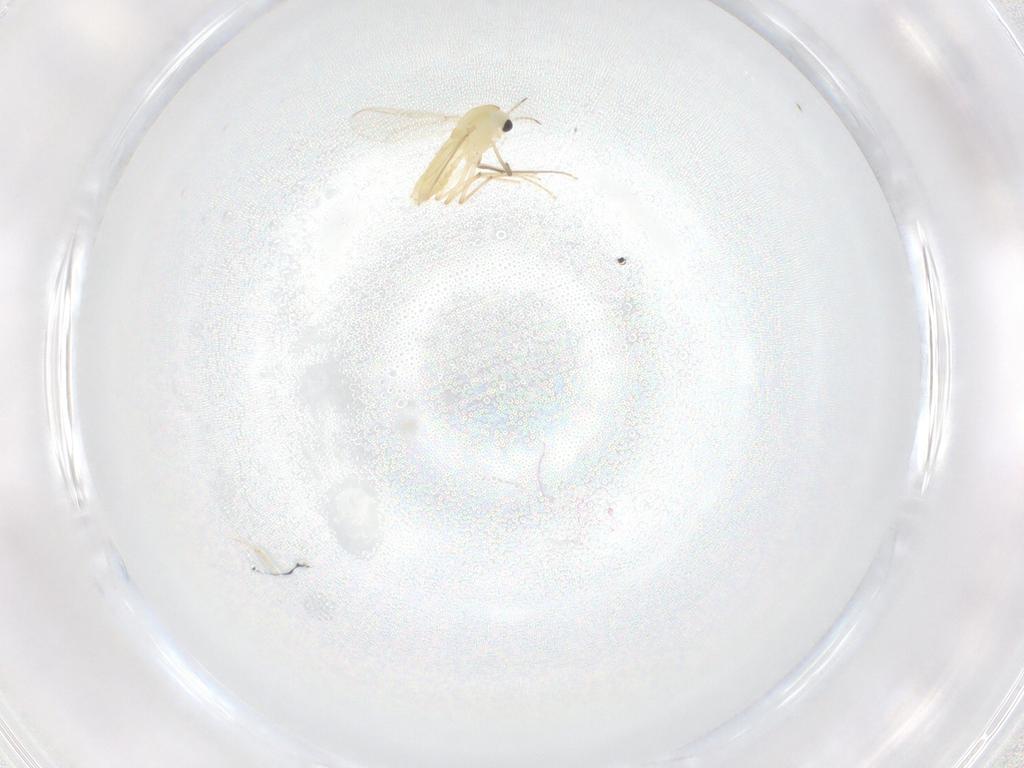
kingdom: Animalia
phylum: Arthropoda
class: Insecta
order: Diptera
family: Chironomidae
